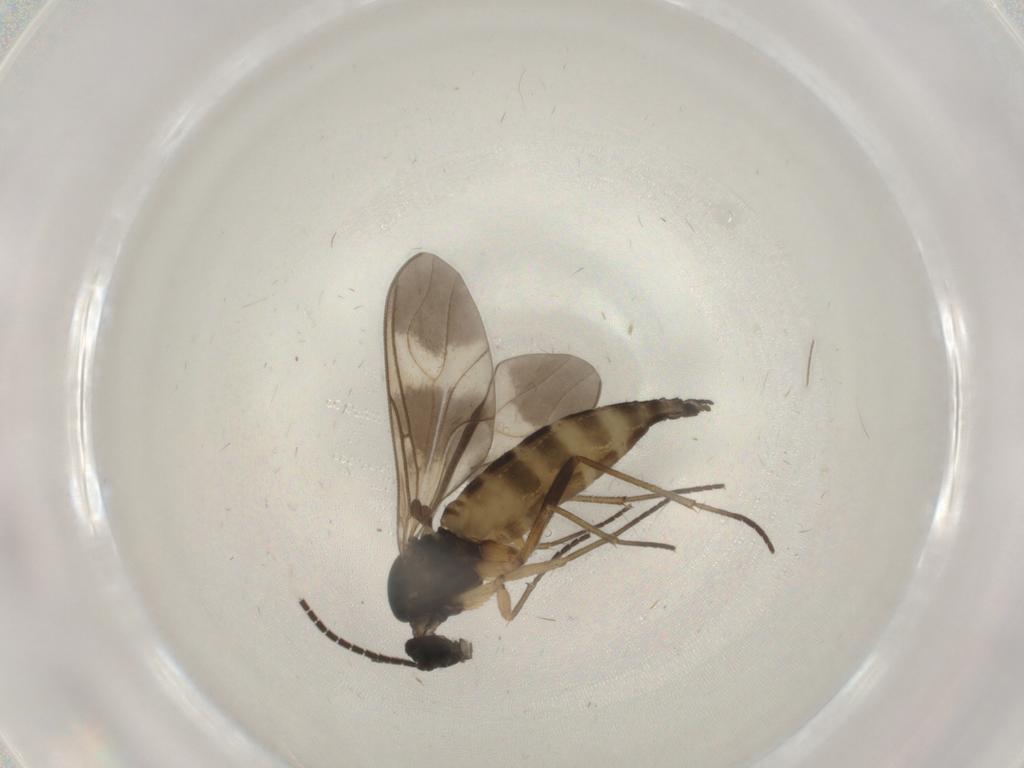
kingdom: Animalia
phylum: Arthropoda
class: Insecta
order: Diptera
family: Sciaridae
